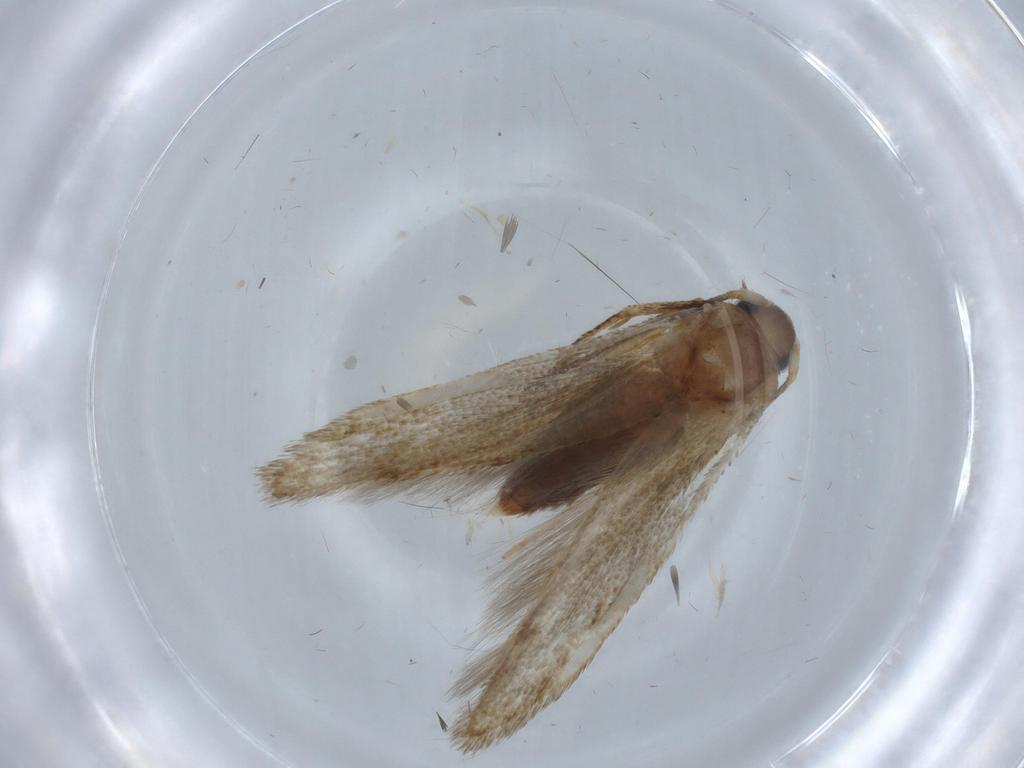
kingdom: Animalia
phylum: Arthropoda
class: Insecta
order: Lepidoptera
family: Blastobasidae
